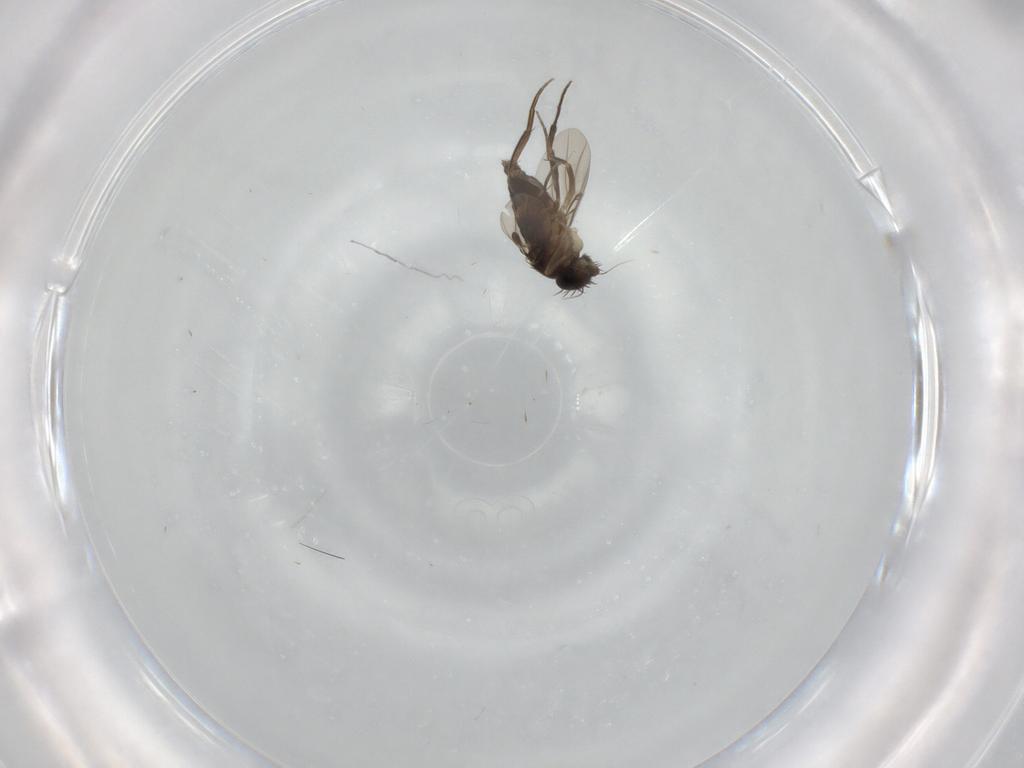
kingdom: Animalia
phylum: Arthropoda
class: Insecta
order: Diptera
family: Phoridae
